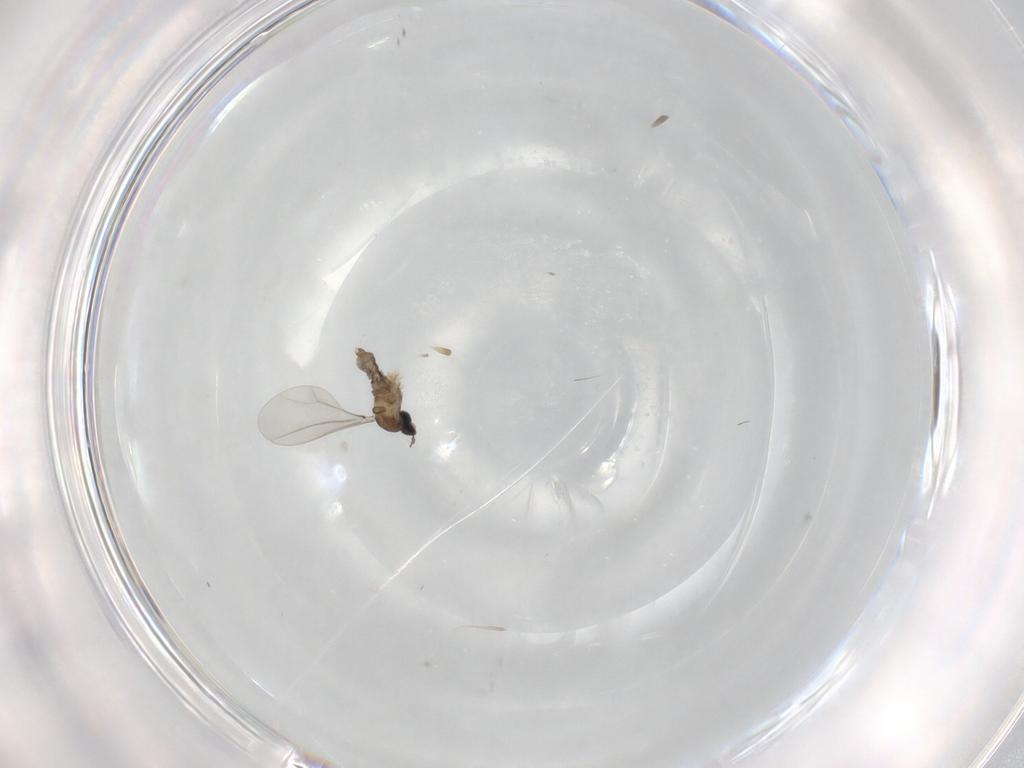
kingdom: Animalia
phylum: Arthropoda
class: Insecta
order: Diptera
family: Cecidomyiidae
